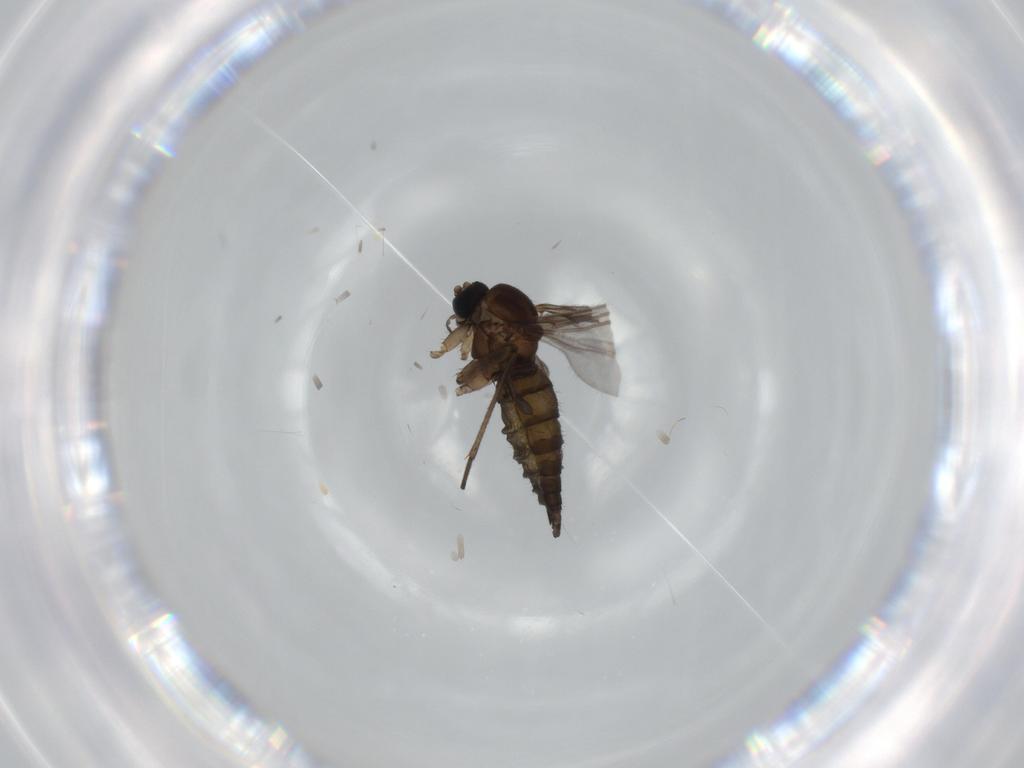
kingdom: Animalia
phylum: Arthropoda
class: Insecta
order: Diptera
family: Sciaridae
